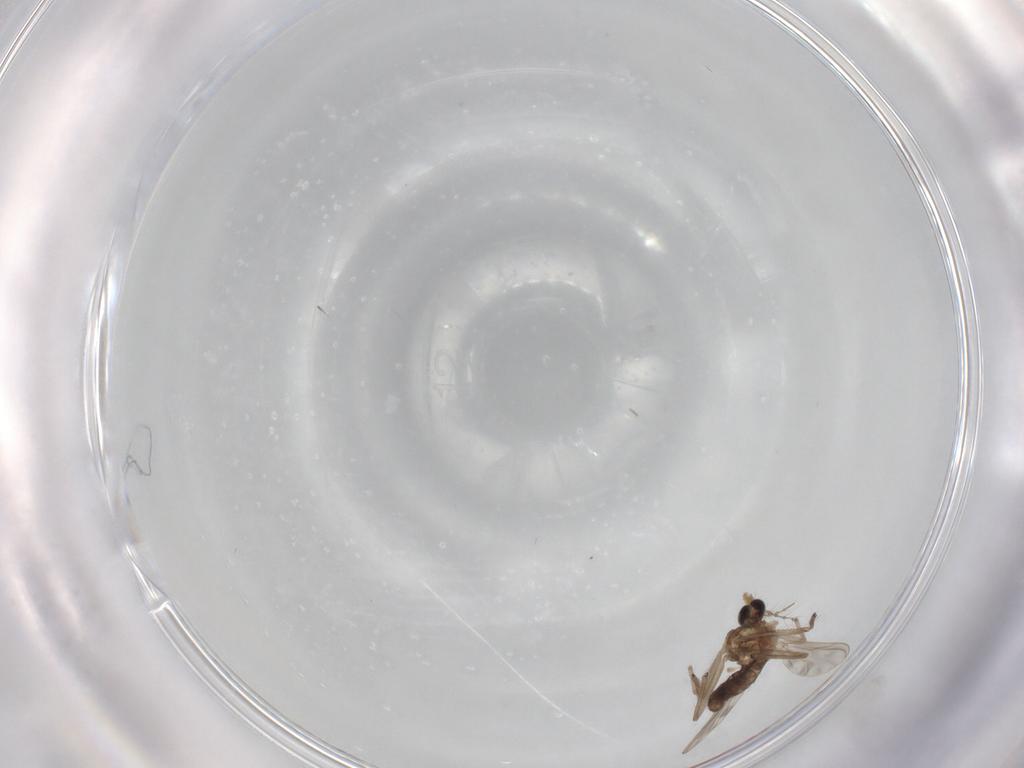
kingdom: Animalia
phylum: Arthropoda
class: Insecta
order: Diptera
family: Chironomidae
